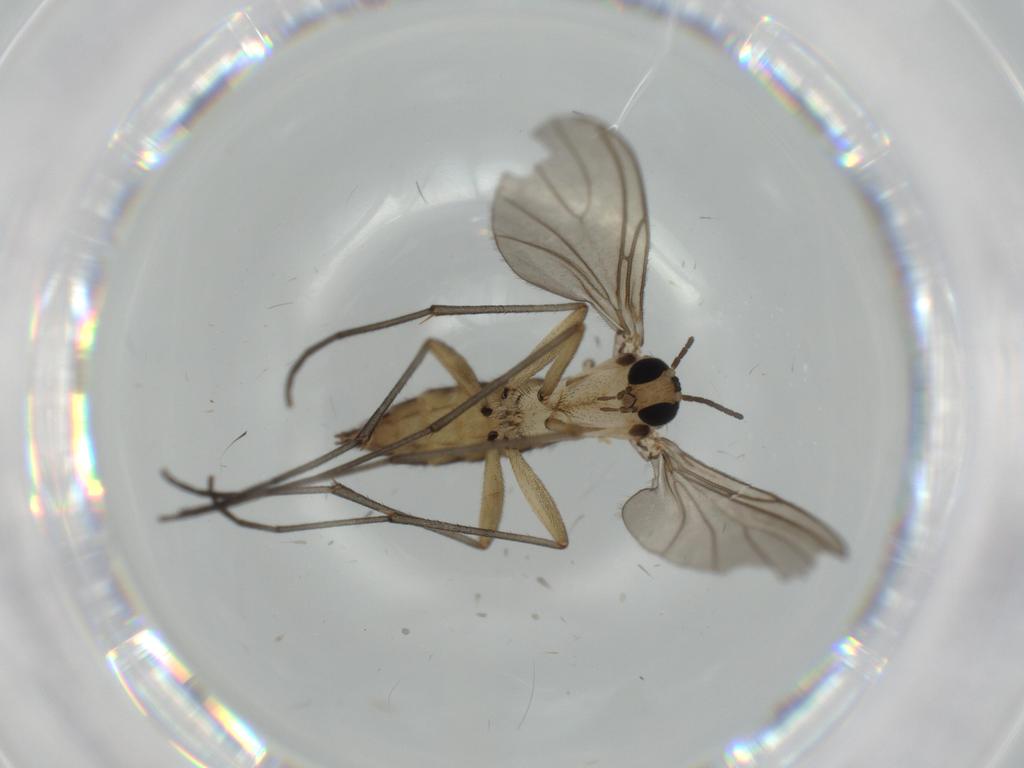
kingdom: Animalia
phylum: Arthropoda
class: Insecta
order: Diptera
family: Sciaridae
